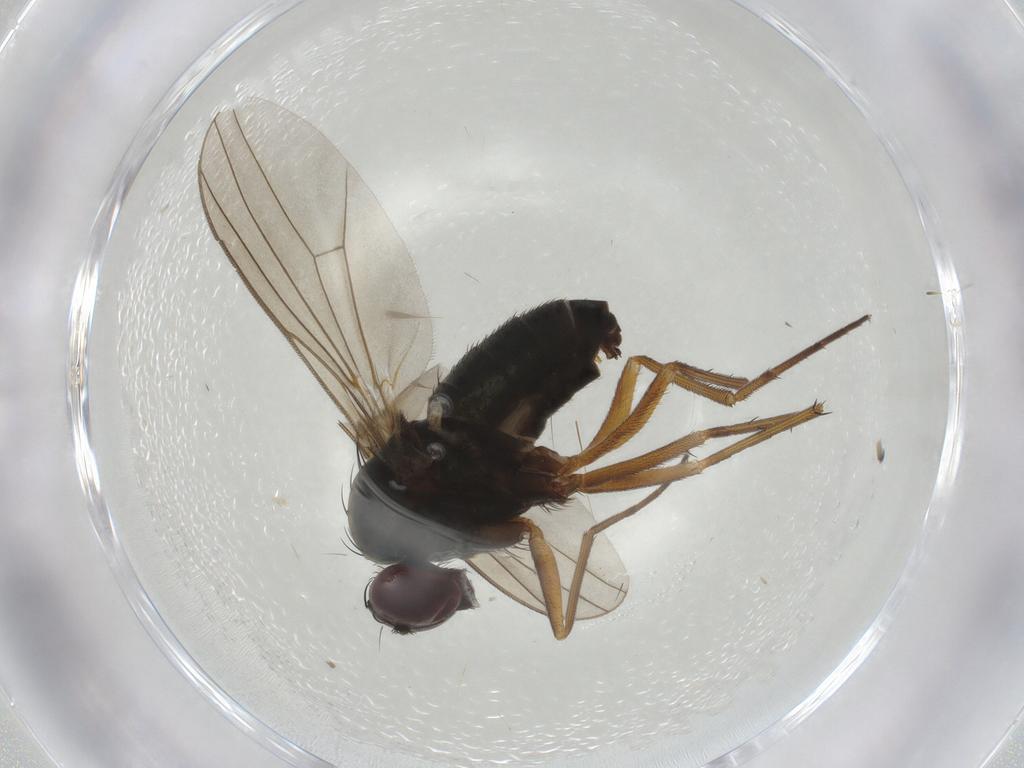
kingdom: Animalia
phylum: Arthropoda
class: Insecta
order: Diptera
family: Dolichopodidae
